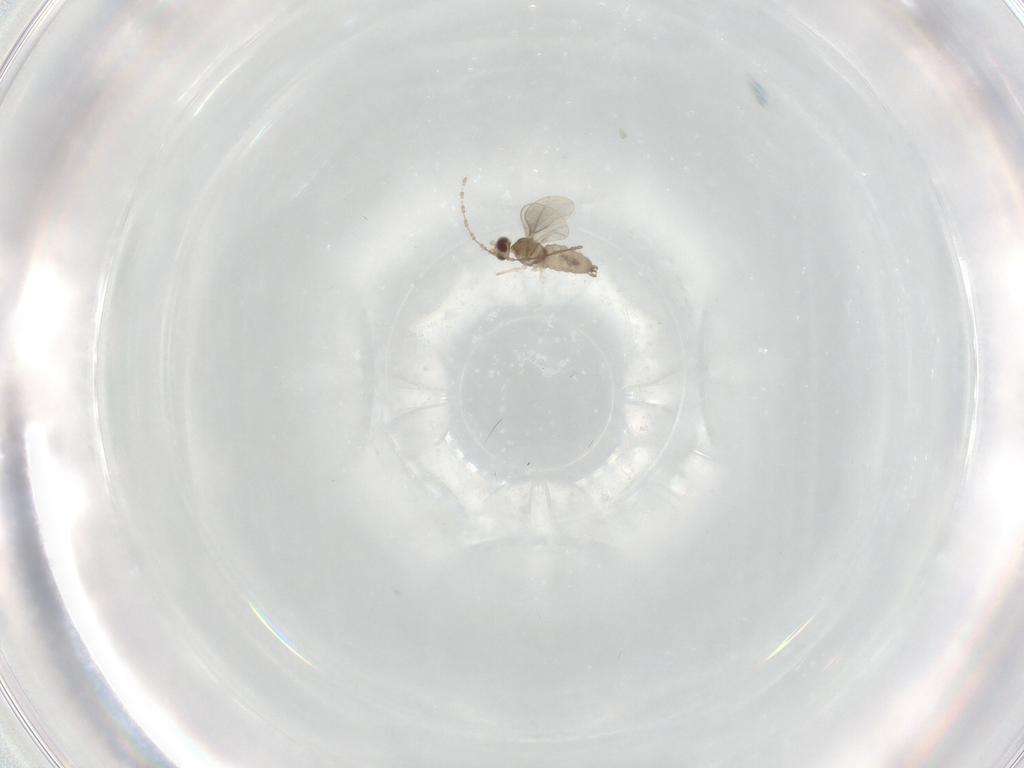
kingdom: Animalia
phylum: Arthropoda
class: Insecta
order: Diptera
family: Cecidomyiidae
